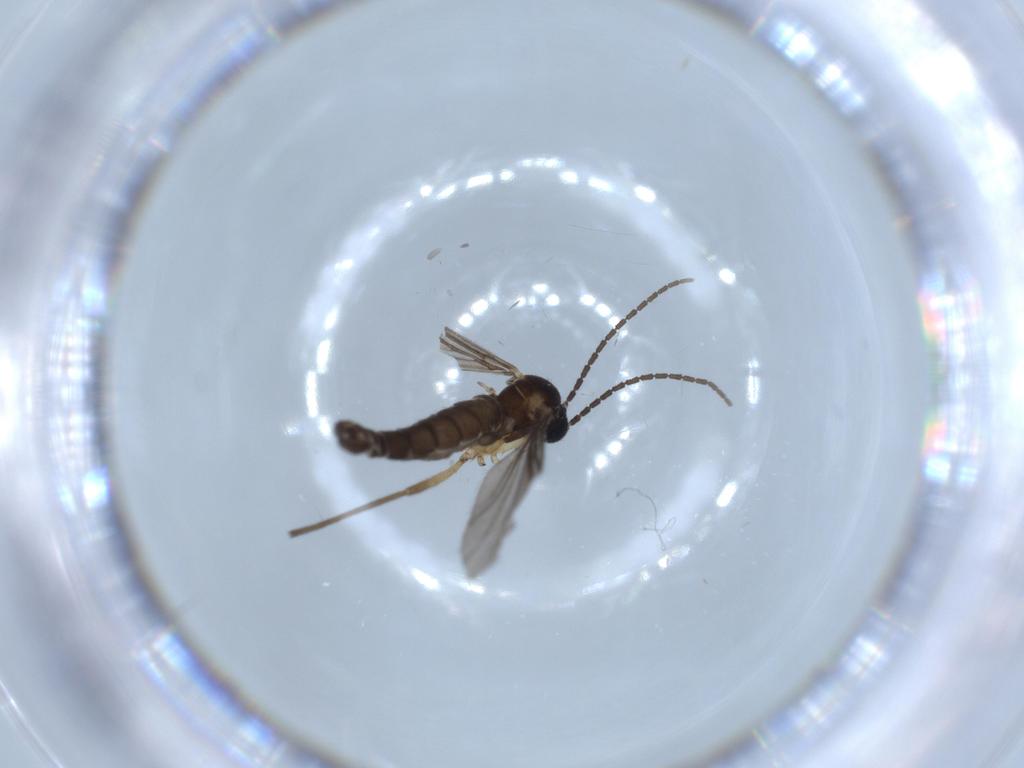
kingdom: Animalia
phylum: Arthropoda
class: Insecta
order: Diptera
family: Sciaridae
